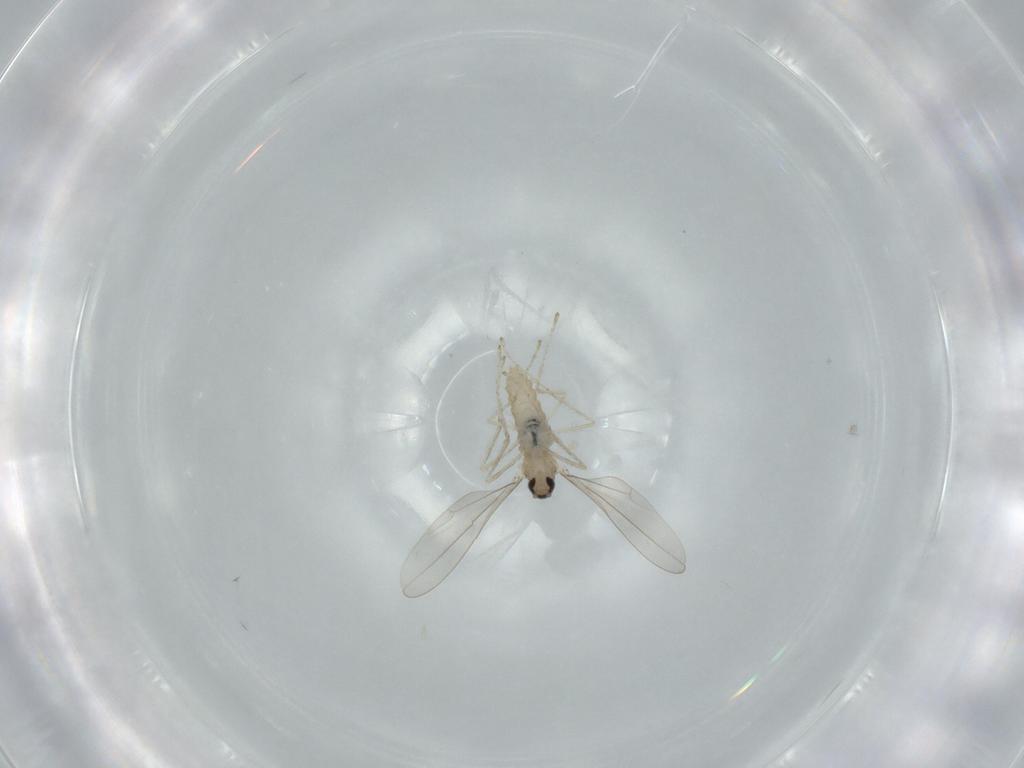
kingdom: Animalia
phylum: Arthropoda
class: Insecta
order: Diptera
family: Cecidomyiidae
